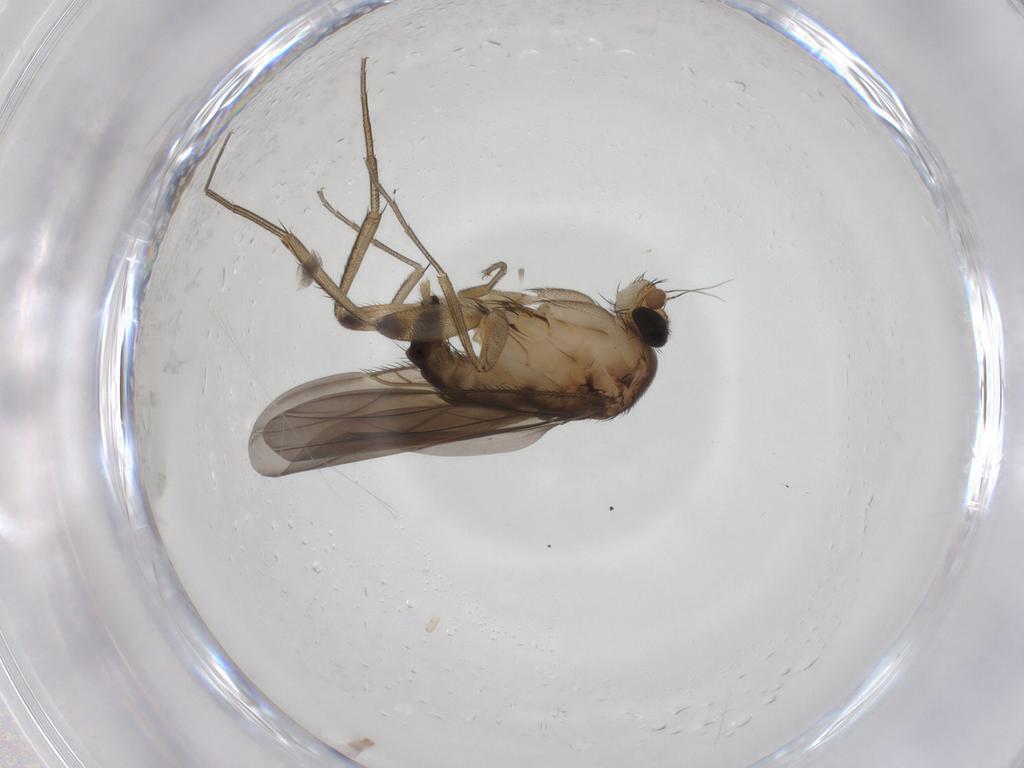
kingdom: Animalia
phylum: Arthropoda
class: Insecta
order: Diptera
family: Phoridae
